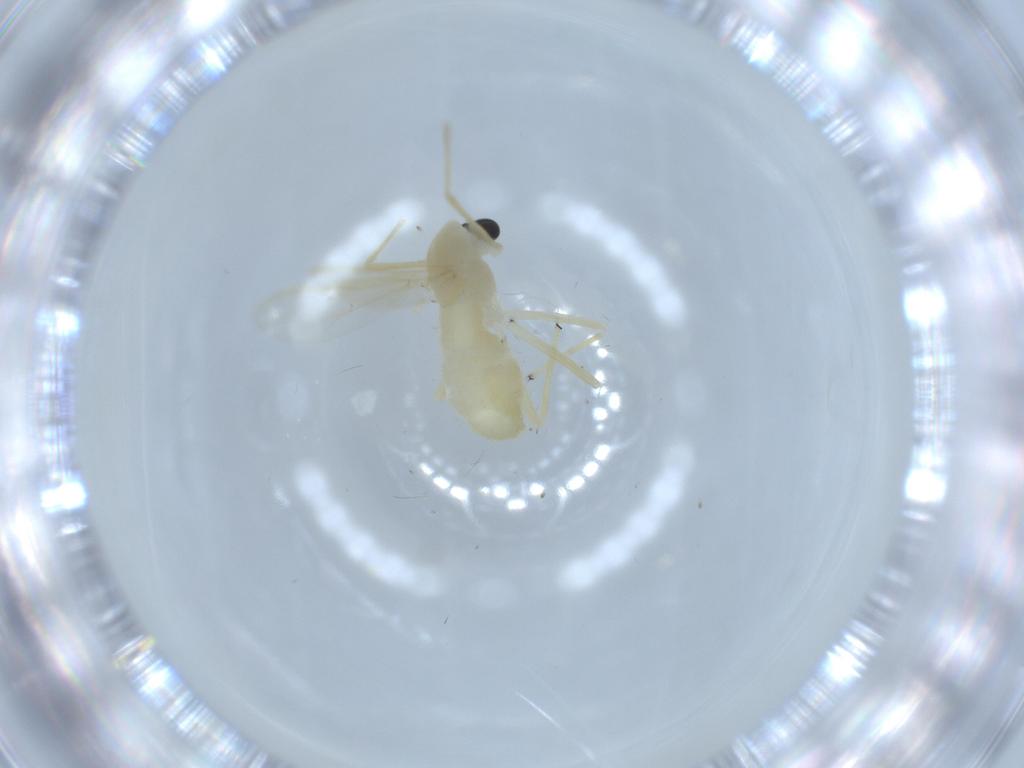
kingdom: Animalia
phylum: Arthropoda
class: Insecta
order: Diptera
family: Chironomidae
